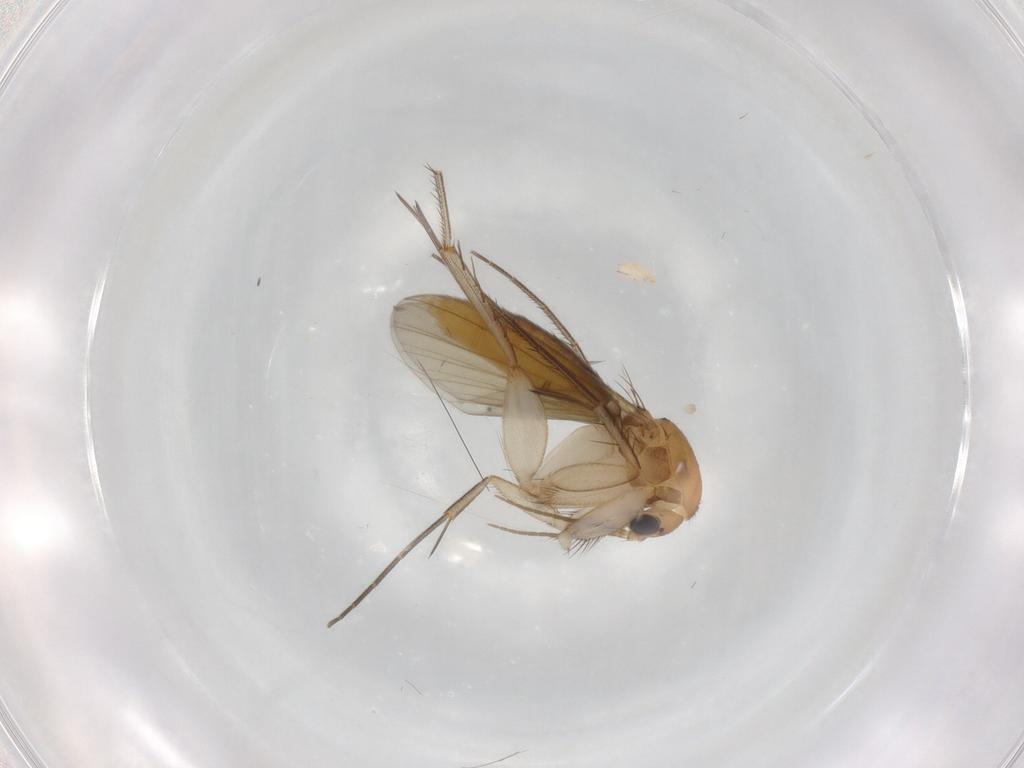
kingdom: Animalia
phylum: Arthropoda
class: Insecta
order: Diptera
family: Mycetophilidae
